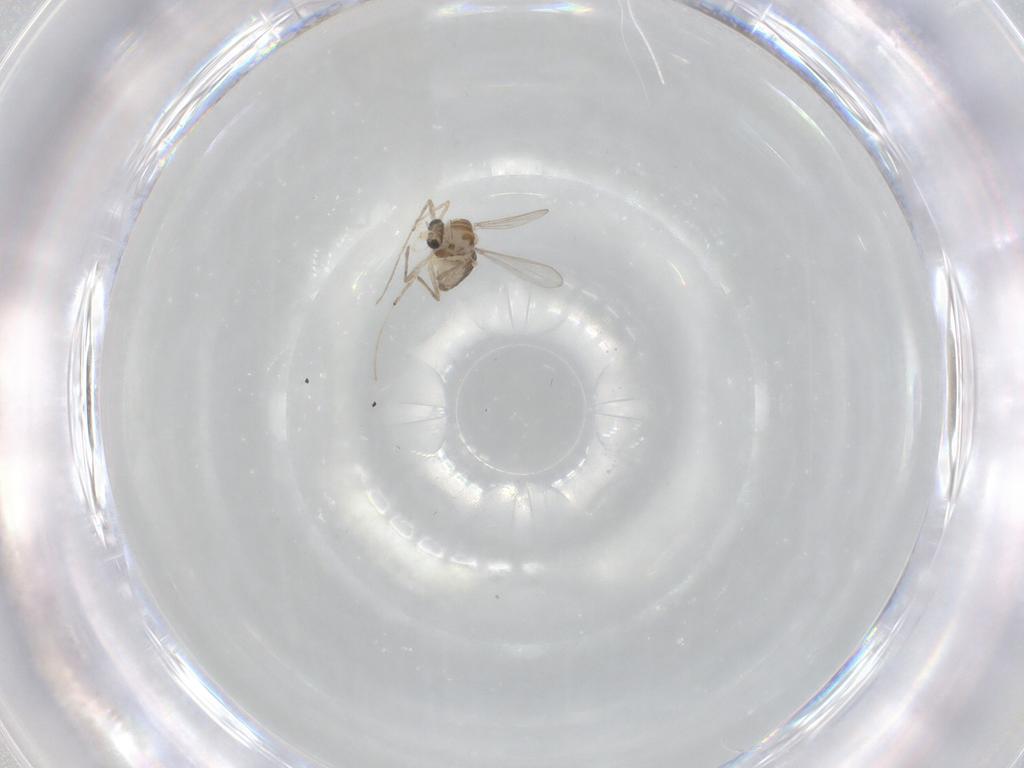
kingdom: Animalia
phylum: Arthropoda
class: Insecta
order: Diptera
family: Chironomidae
